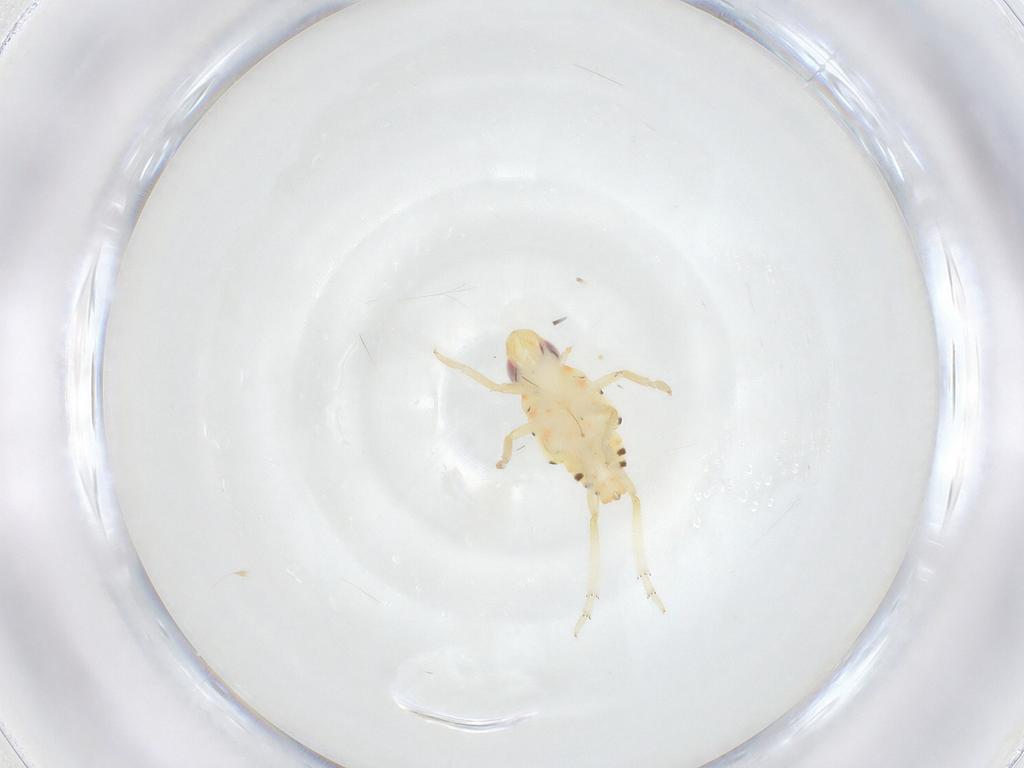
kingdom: Animalia
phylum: Arthropoda
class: Insecta
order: Hemiptera
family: Tropiduchidae
